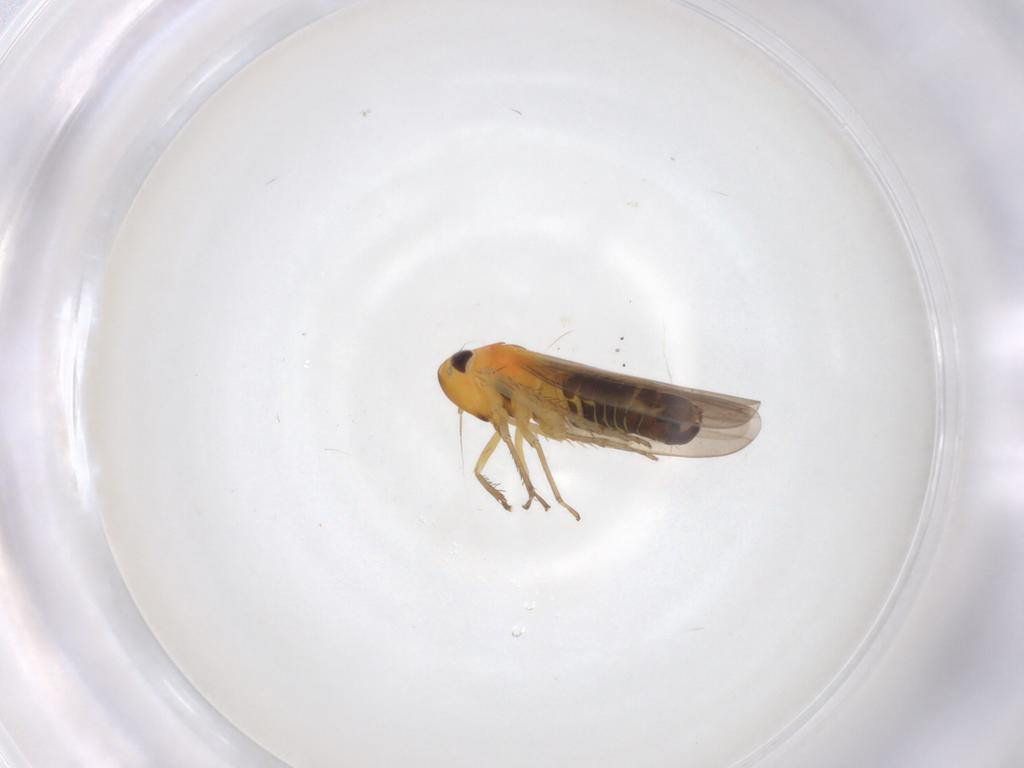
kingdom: Animalia
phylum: Arthropoda
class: Insecta
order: Hemiptera
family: Cicadellidae
